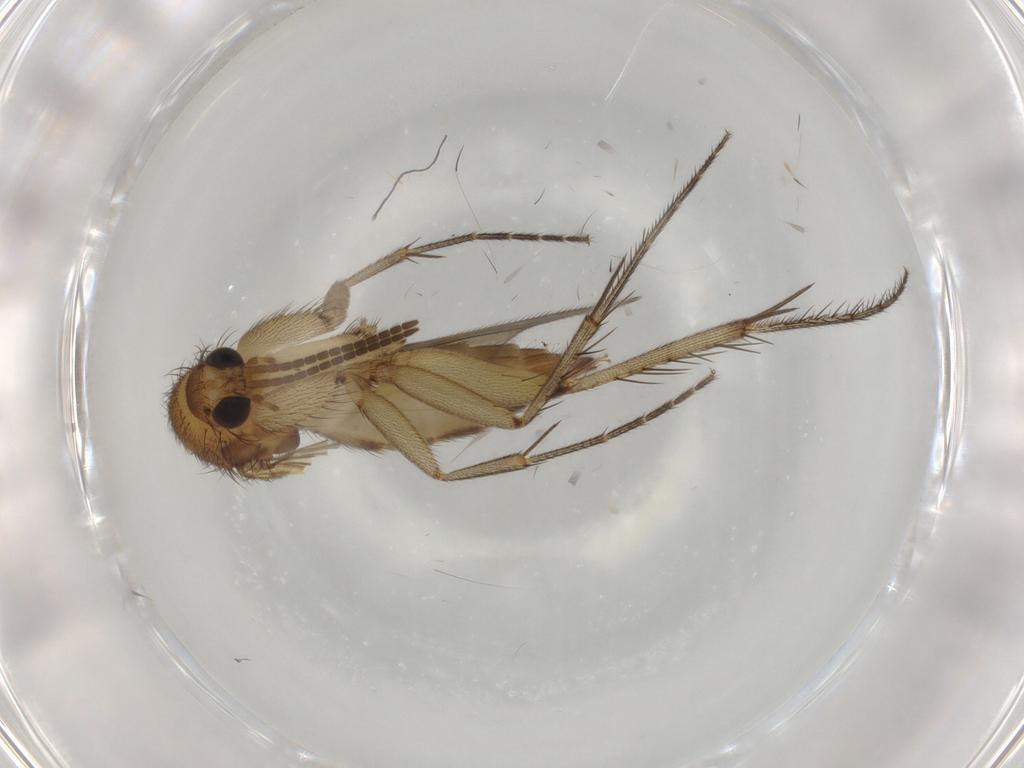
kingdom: Animalia
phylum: Arthropoda
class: Insecta
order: Diptera
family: Mycetophilidae
